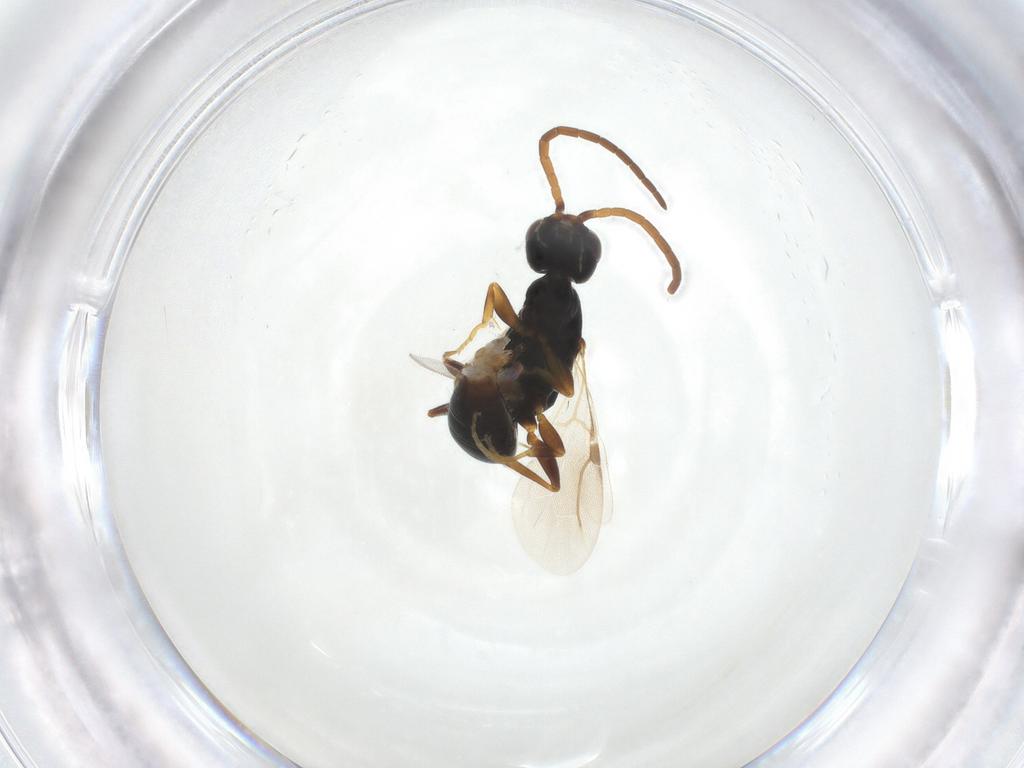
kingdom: Animalia
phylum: Arthropoda
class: Insecta
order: Hymenoptera
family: Bethylidae
